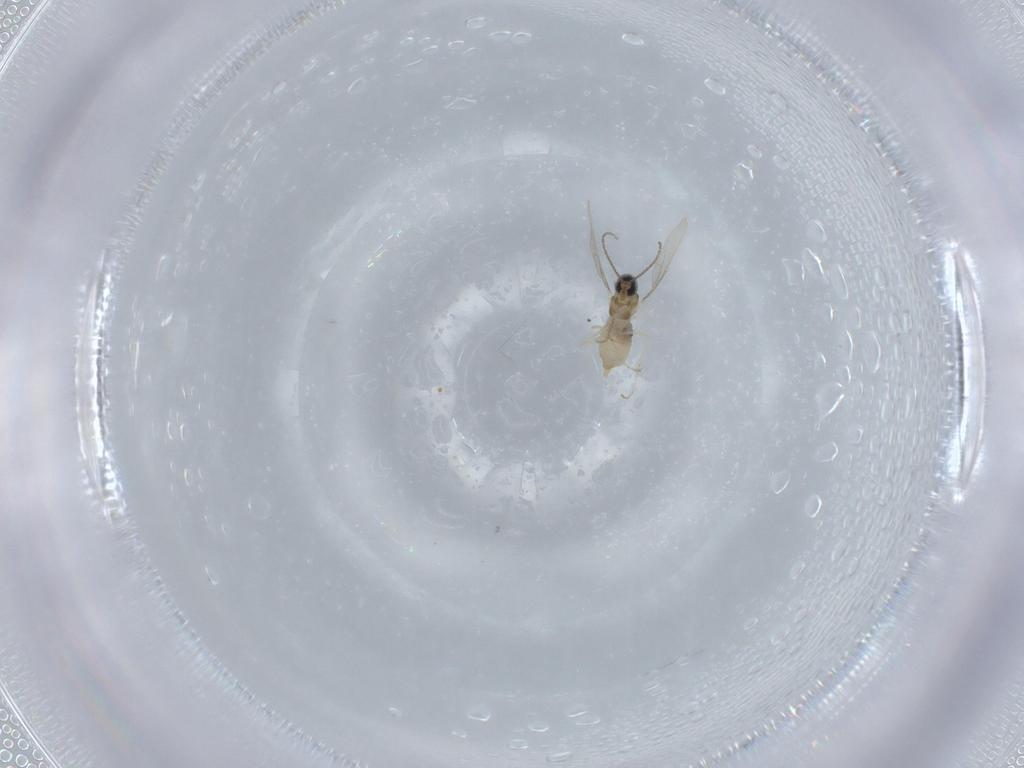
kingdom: Animalia
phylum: Arthropoda
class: Insecta
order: Diptera
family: Cecidomyiidae
